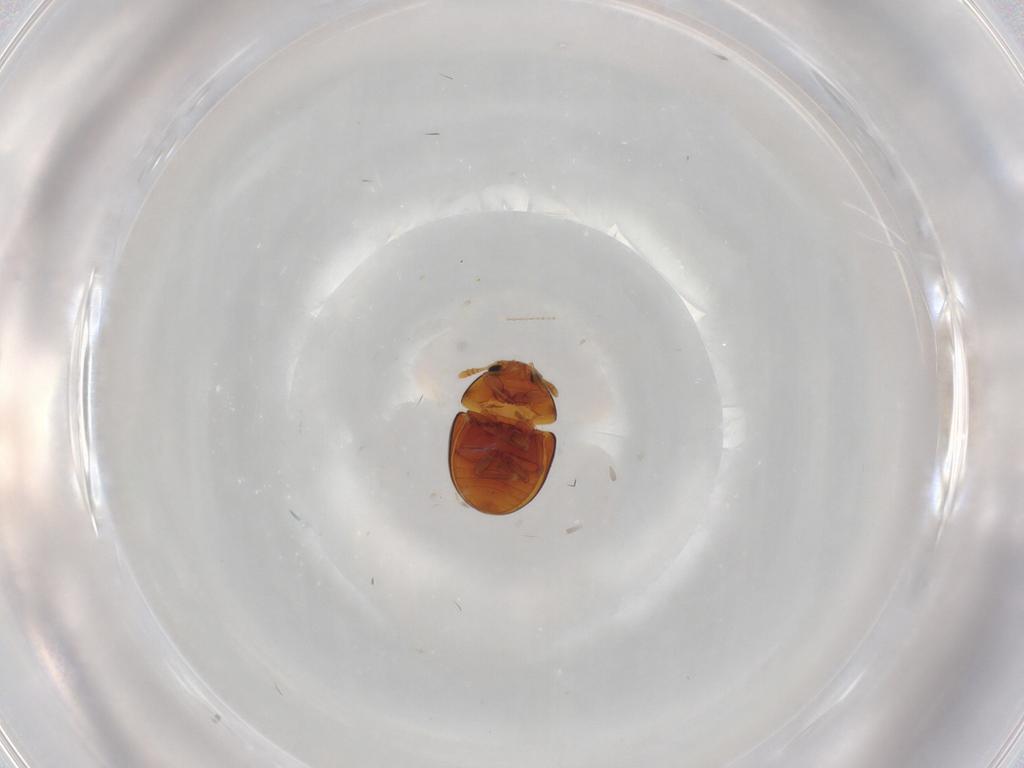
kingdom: Animalia
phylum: Arthropoda
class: Insecta
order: Coleoptera
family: Phalacridae
